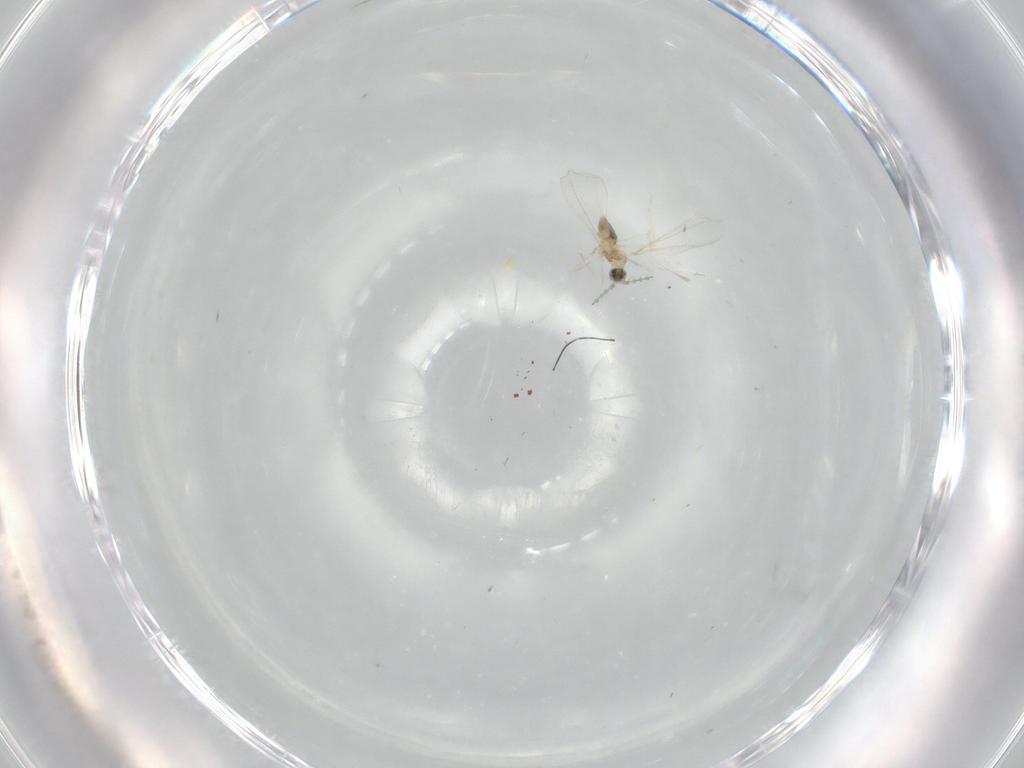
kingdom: Animalia
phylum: Arthropoda
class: Insecta
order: Diptera
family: Cecidomyiidae
